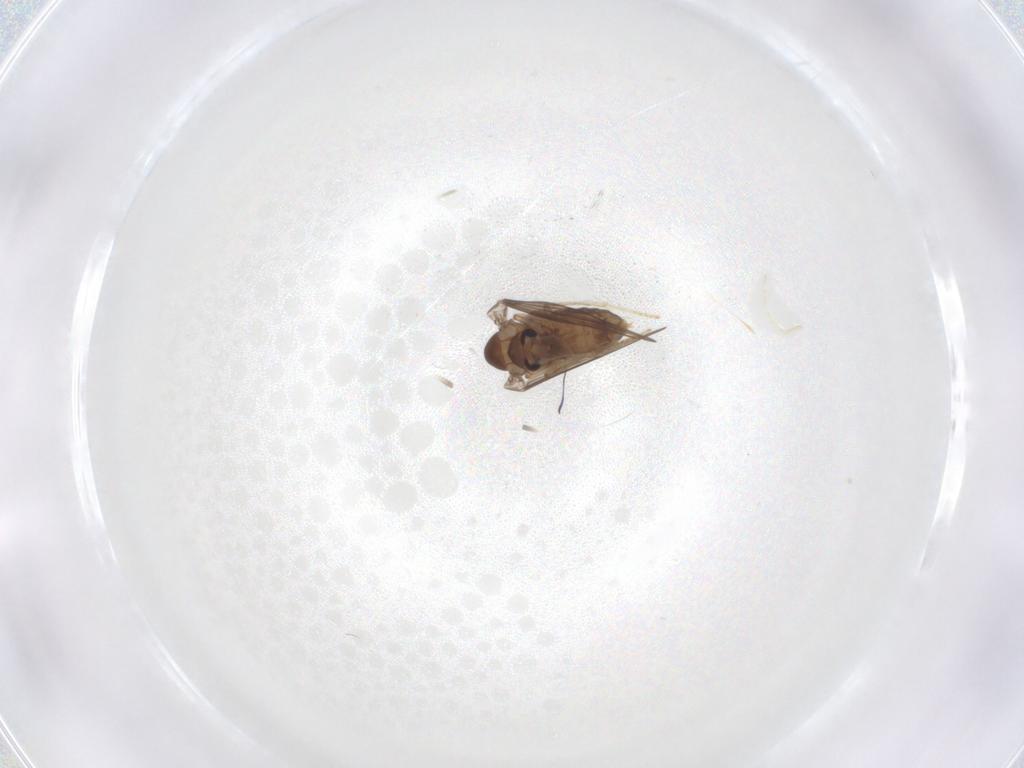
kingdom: Animalia
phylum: Arthropoda
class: Insecta
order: Diptera
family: Psychodidae
